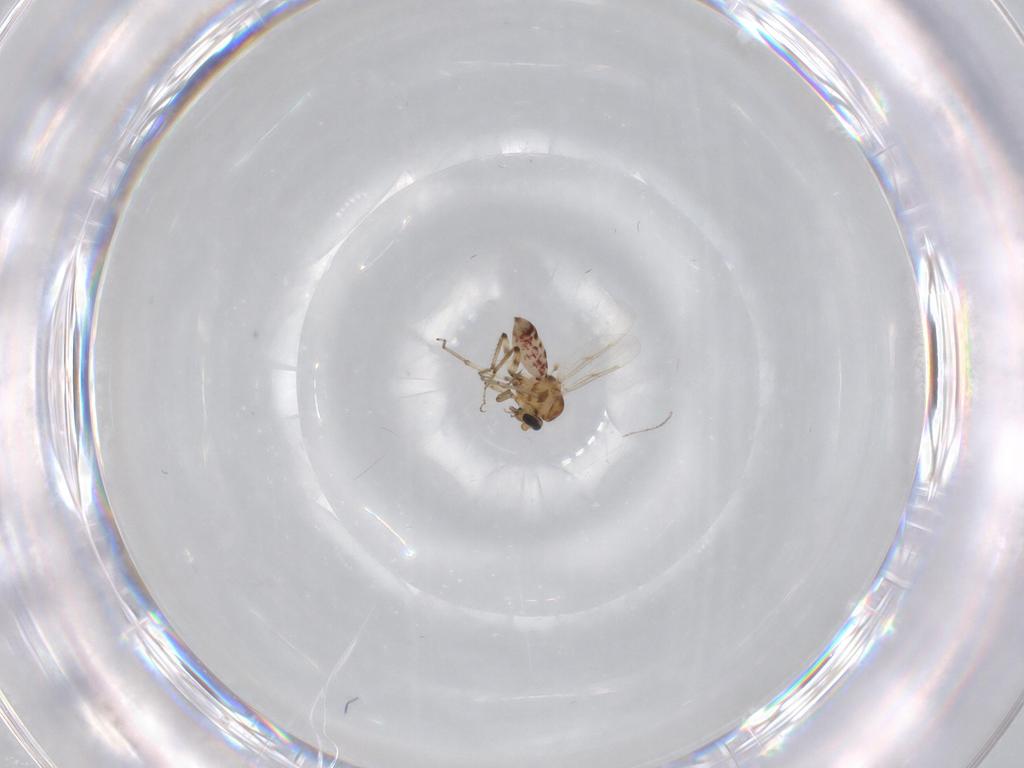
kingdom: Animalia
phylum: Arthropoda
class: Insecta
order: Diptera
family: Ceratopogonidae
